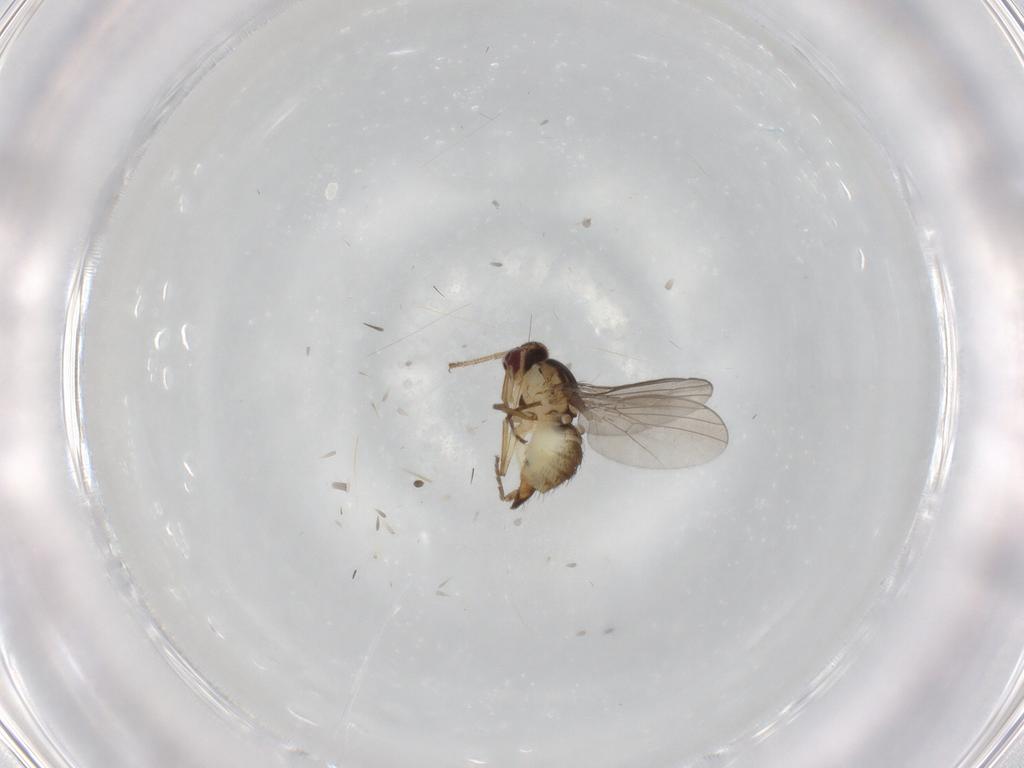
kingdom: Animalia
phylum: Arthropoda
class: Insecta
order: Diptera
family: Agromyzidae
